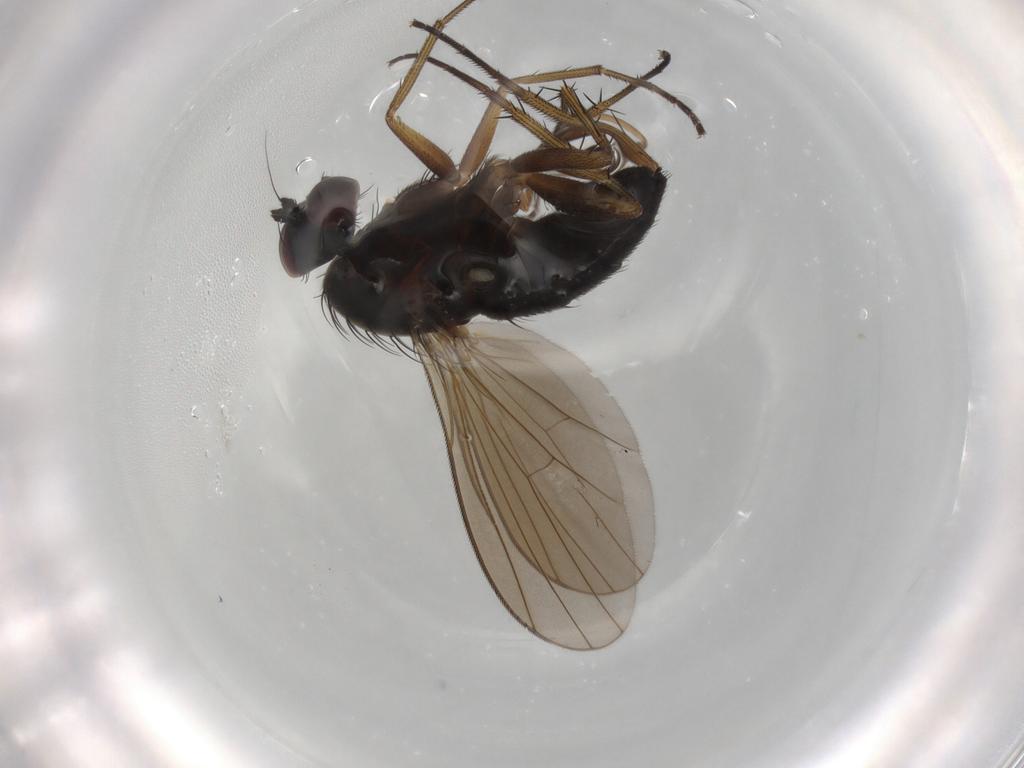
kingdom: Animalia
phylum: Arthropoda
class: Insecta
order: Diptera
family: Dolichopodidae
